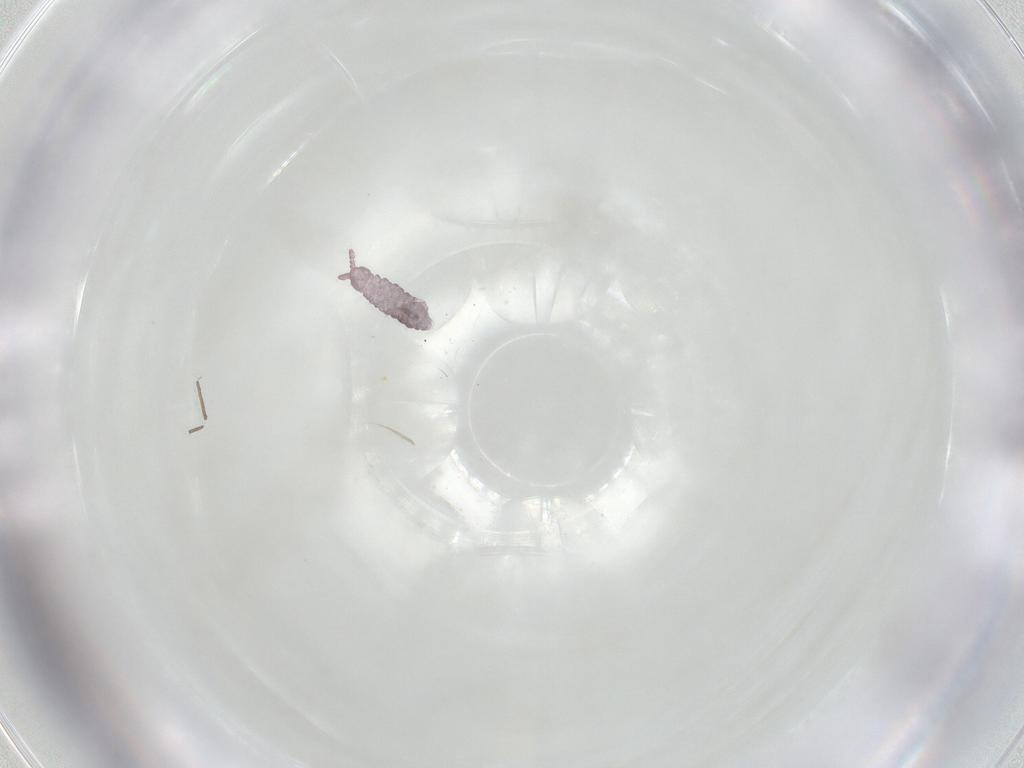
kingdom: Animalia
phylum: Arthropoda
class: Collembola
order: Poduromorpha
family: Hypogastruridae
